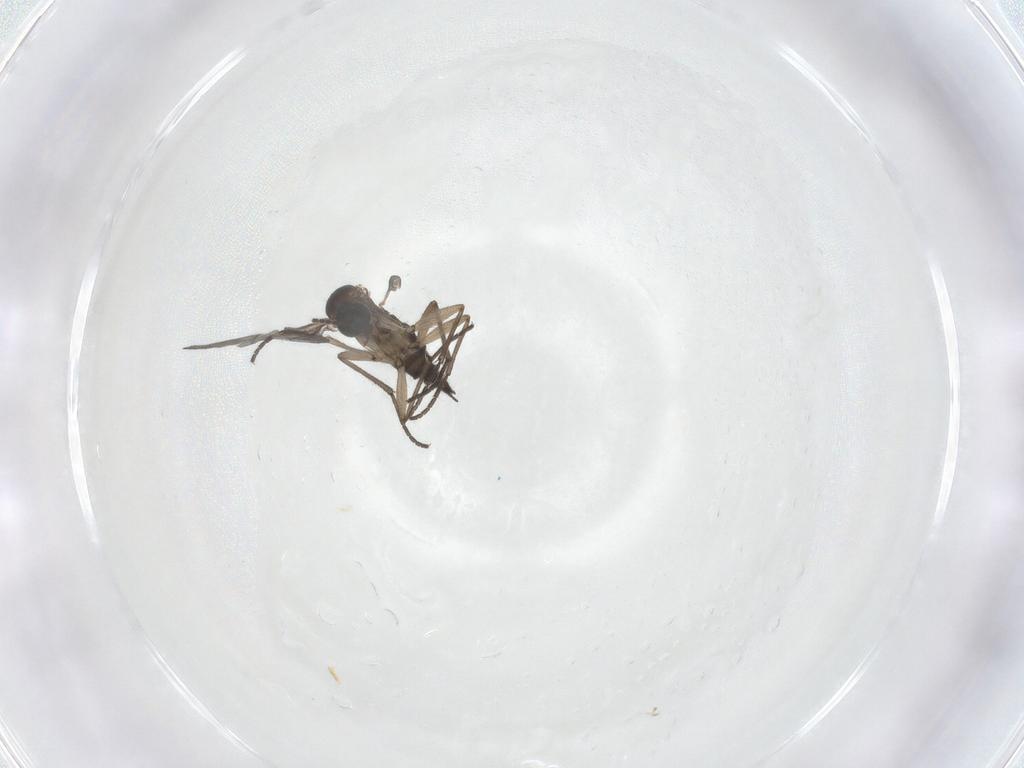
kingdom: Animalia
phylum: Arthropoda
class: Insecta
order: Diptera
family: Sciaridae
